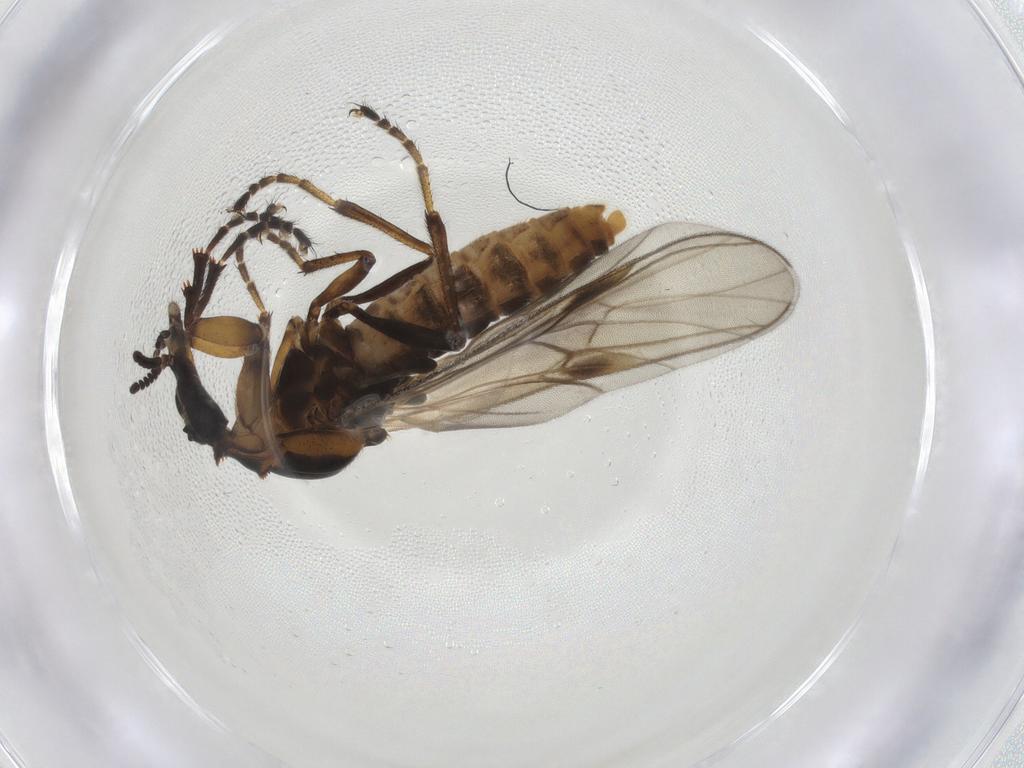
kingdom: Animalia
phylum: Arthropoda
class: Insecta
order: Diptera
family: Bibionidae
